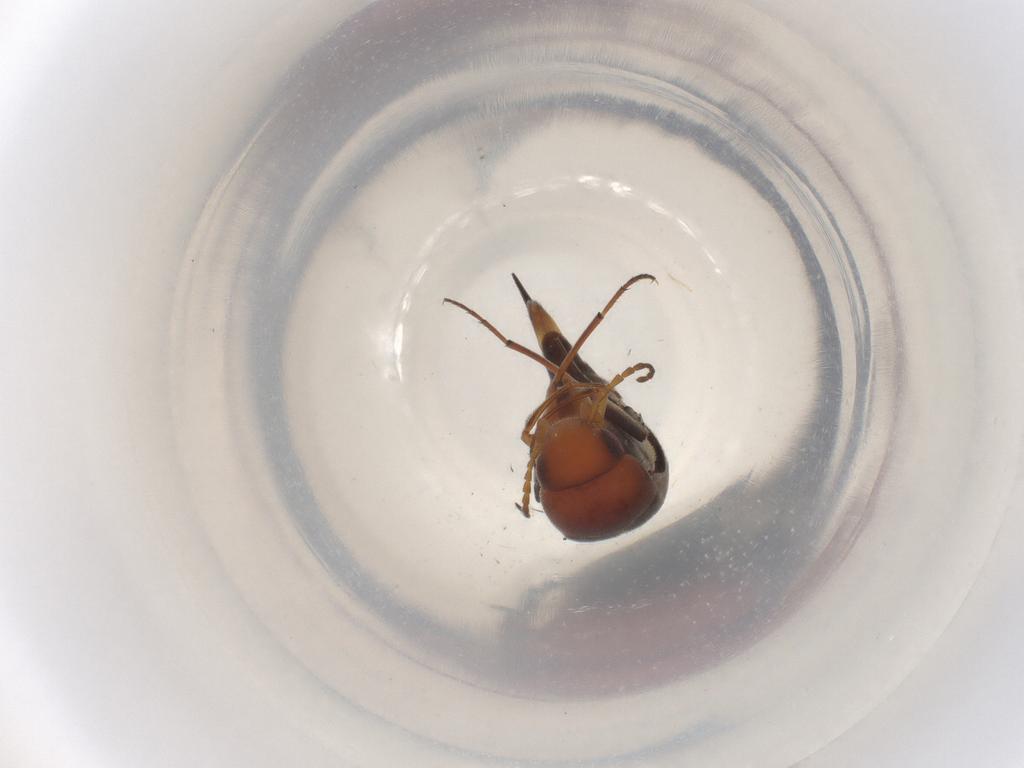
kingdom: Animalia
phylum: Arthropoda
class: Insecta
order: Coleoptera
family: Mordellidae
